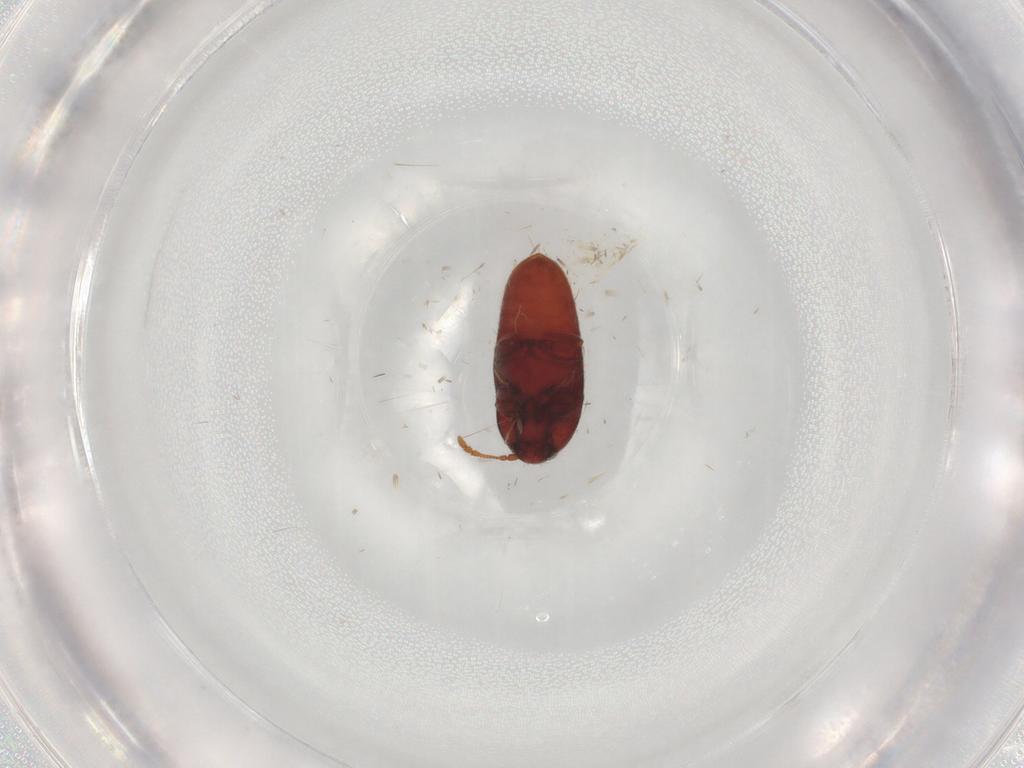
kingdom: Animalia
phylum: Arthropoda
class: Insecta
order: Coleoptera
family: Throscidae
